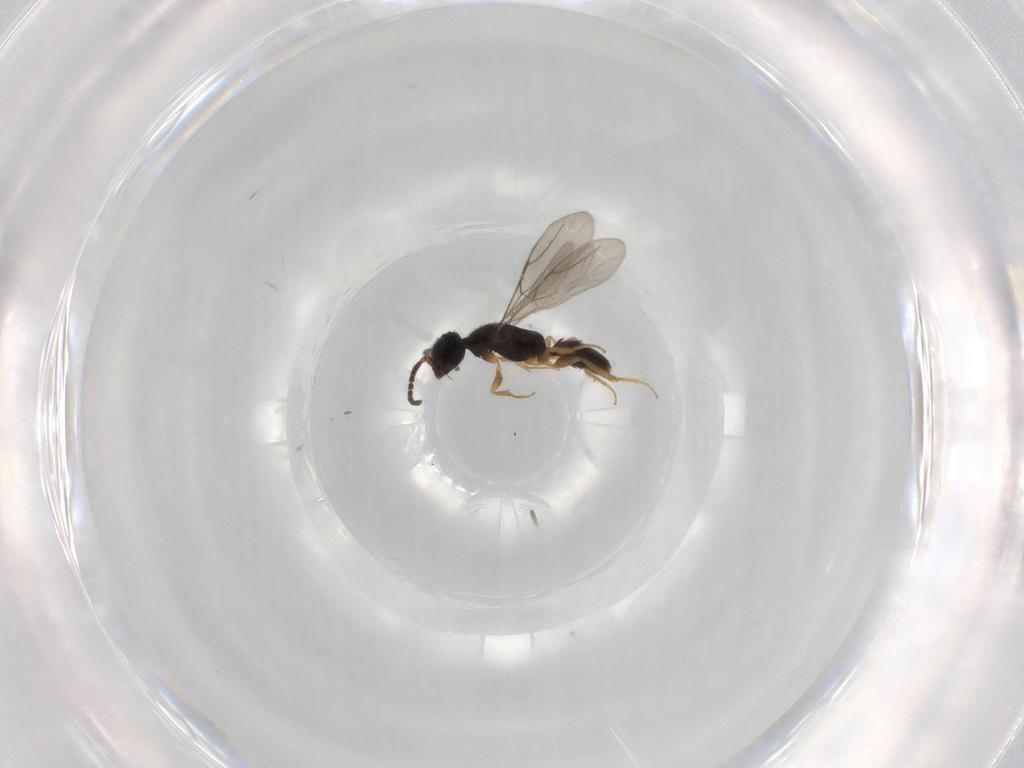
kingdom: Animalia
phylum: Arthropoda
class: Insecta
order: Hymenoptera
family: Bethylidae
